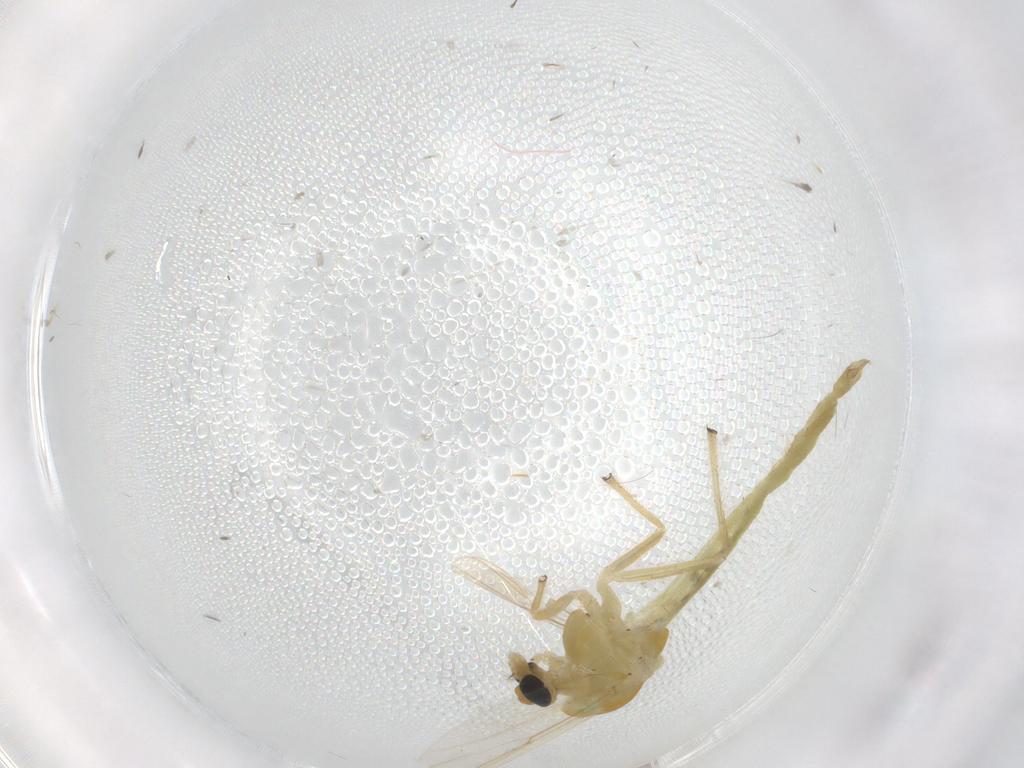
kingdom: Animalia
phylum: Arthropoda
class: Insecta
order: Diptera
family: Chironomidae
